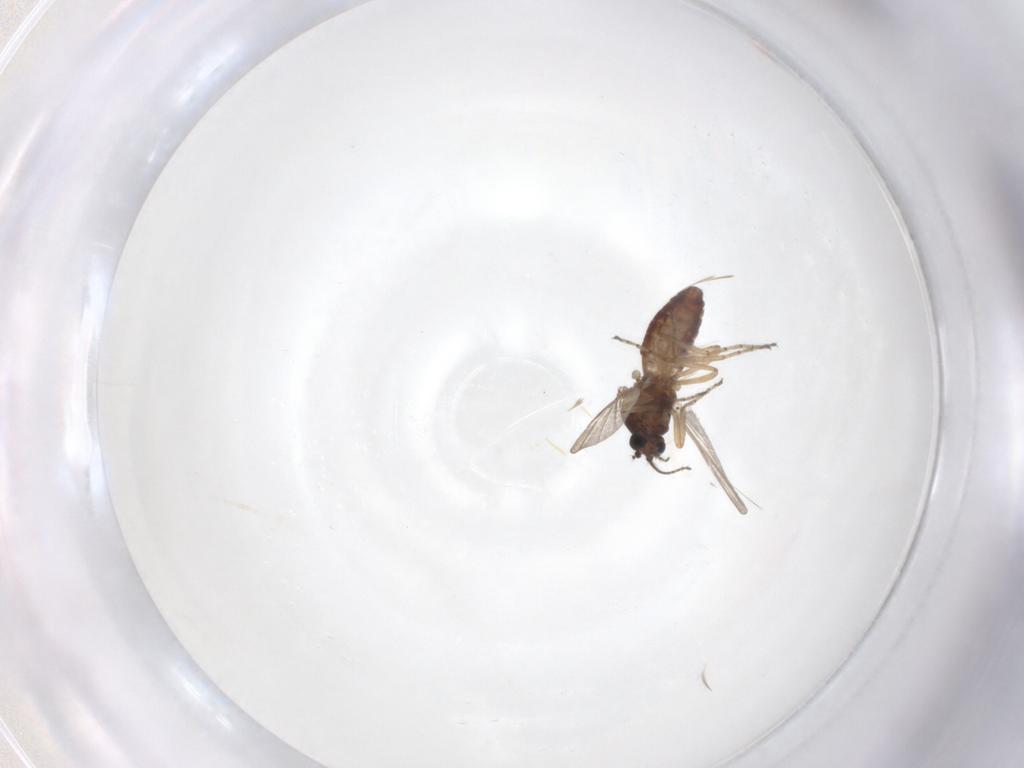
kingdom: Animalia
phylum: Arthropoda
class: Insecta
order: Diptera
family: Ceratopogonidae
